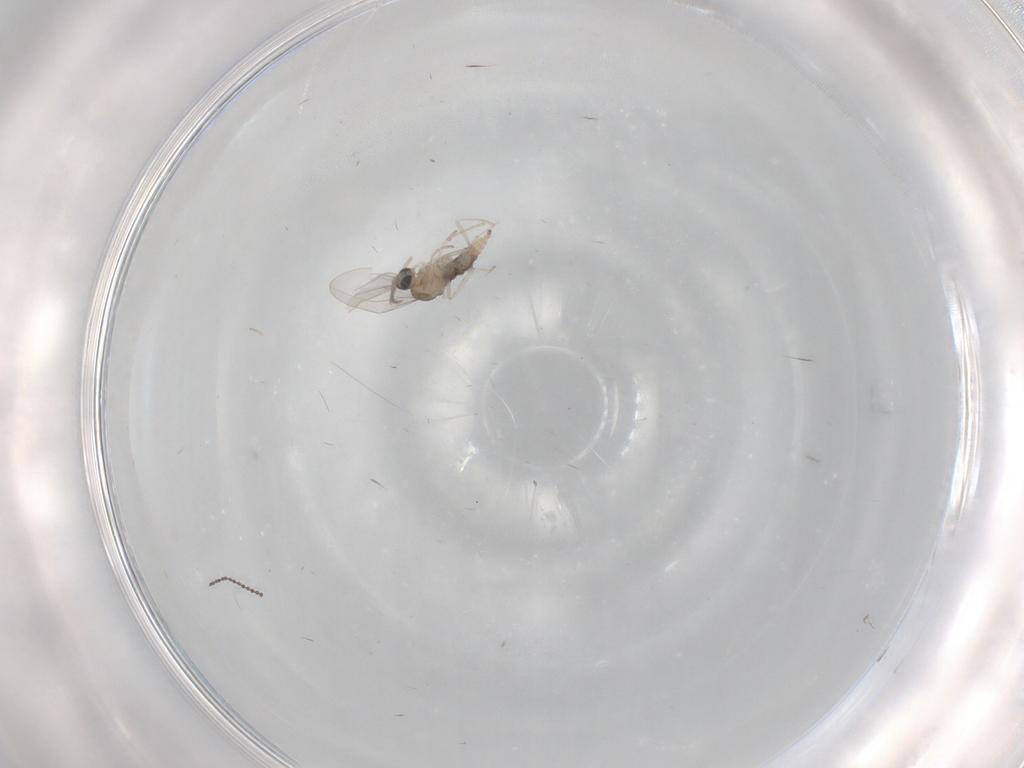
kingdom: Animalia
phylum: Arthropoda
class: Insecta
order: Diptera
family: Cecidomyiidae
